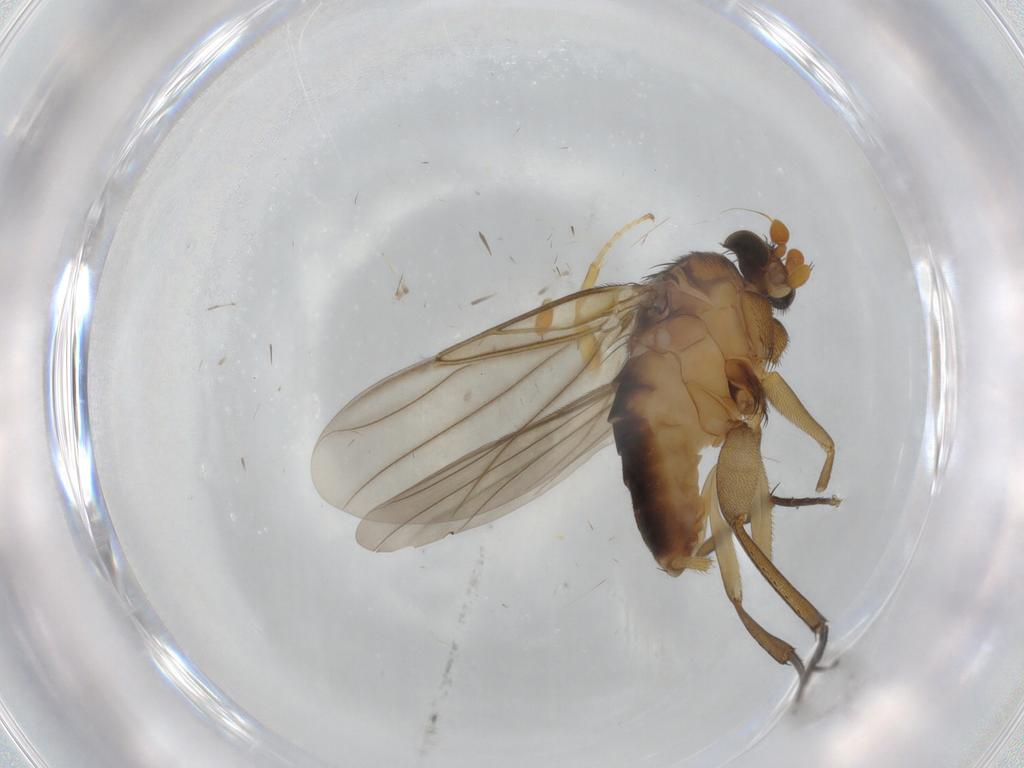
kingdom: Animalia
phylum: Arthropoda
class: Insecta
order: Diptera
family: Phoridae
